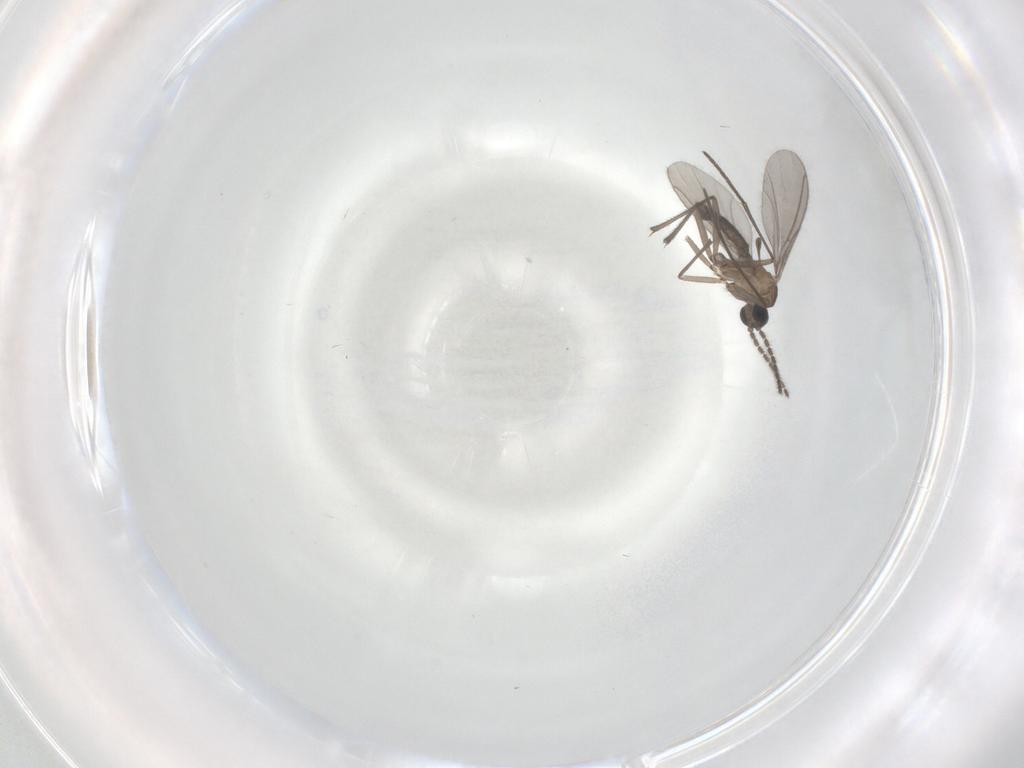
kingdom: Animalia
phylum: Arthropoda
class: Insecta
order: Diptera
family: Sciaridae
